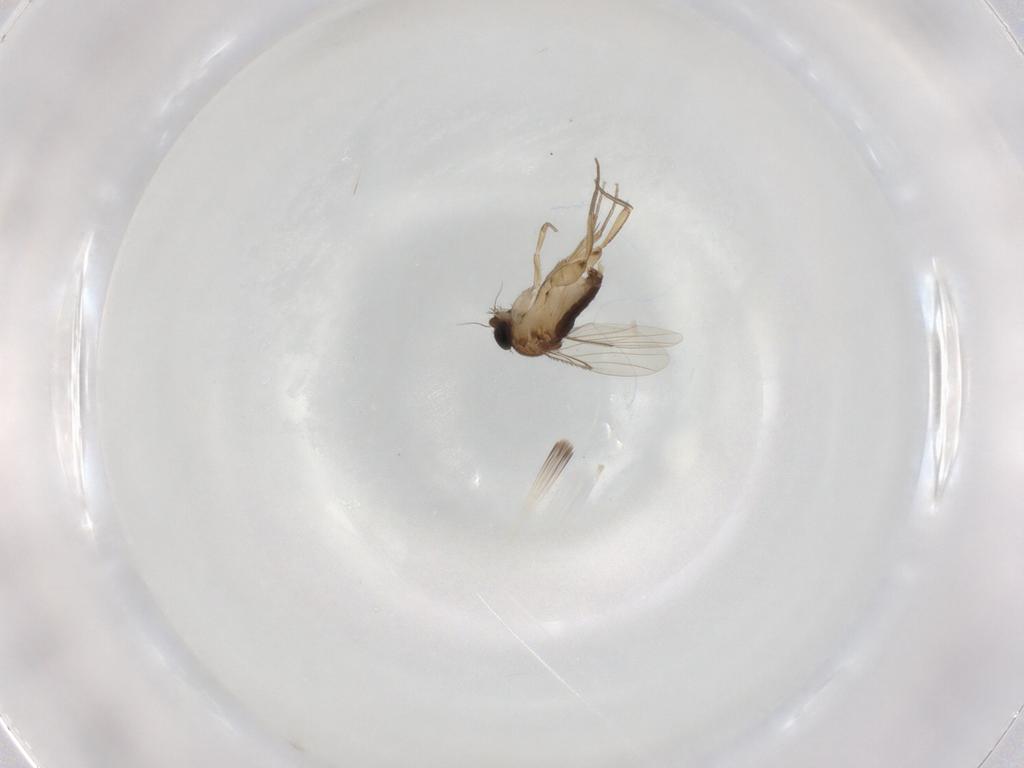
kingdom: Animalia
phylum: Arthropoda
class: Insecta
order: Diptera
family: Phoridae
